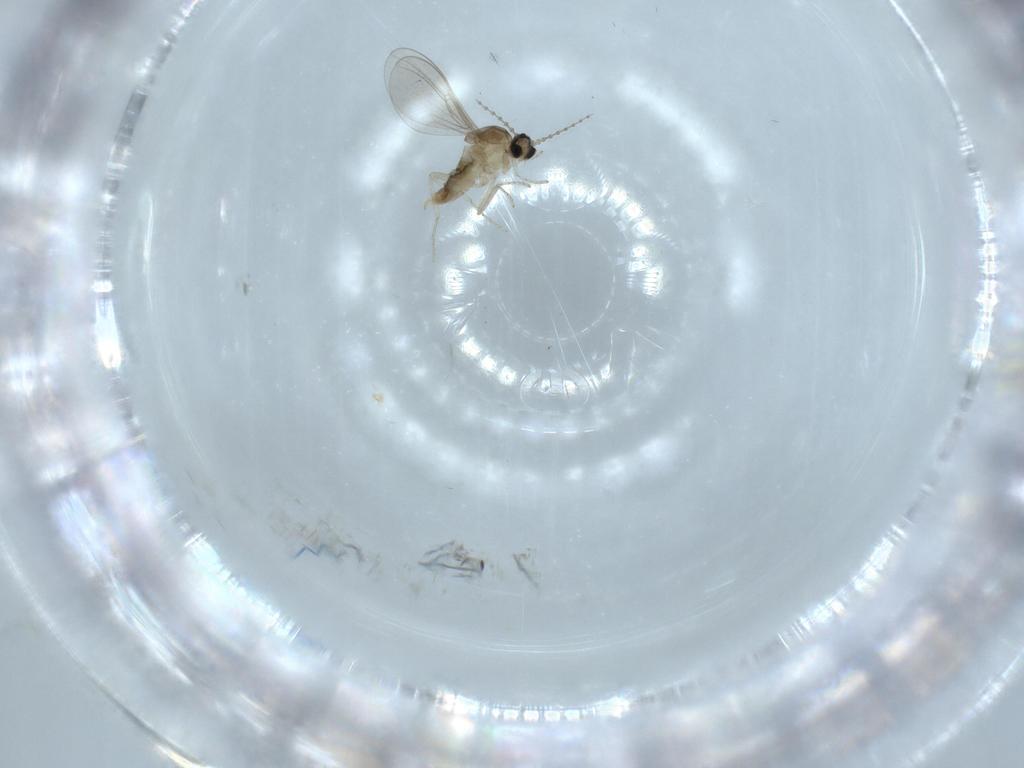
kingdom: Animalia
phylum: Arthropoda
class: Insecta
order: Diptera
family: Cecidomyiidae
